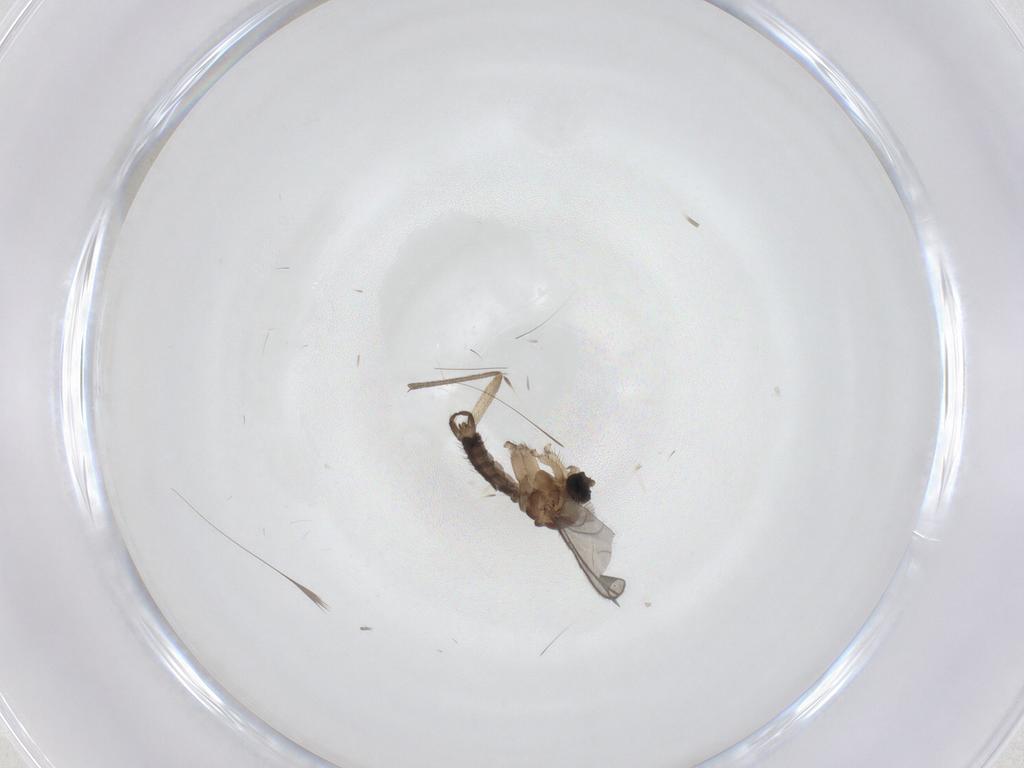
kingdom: Animalia
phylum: Arthropoda
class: Insecta
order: Diptera
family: Sciaridae
